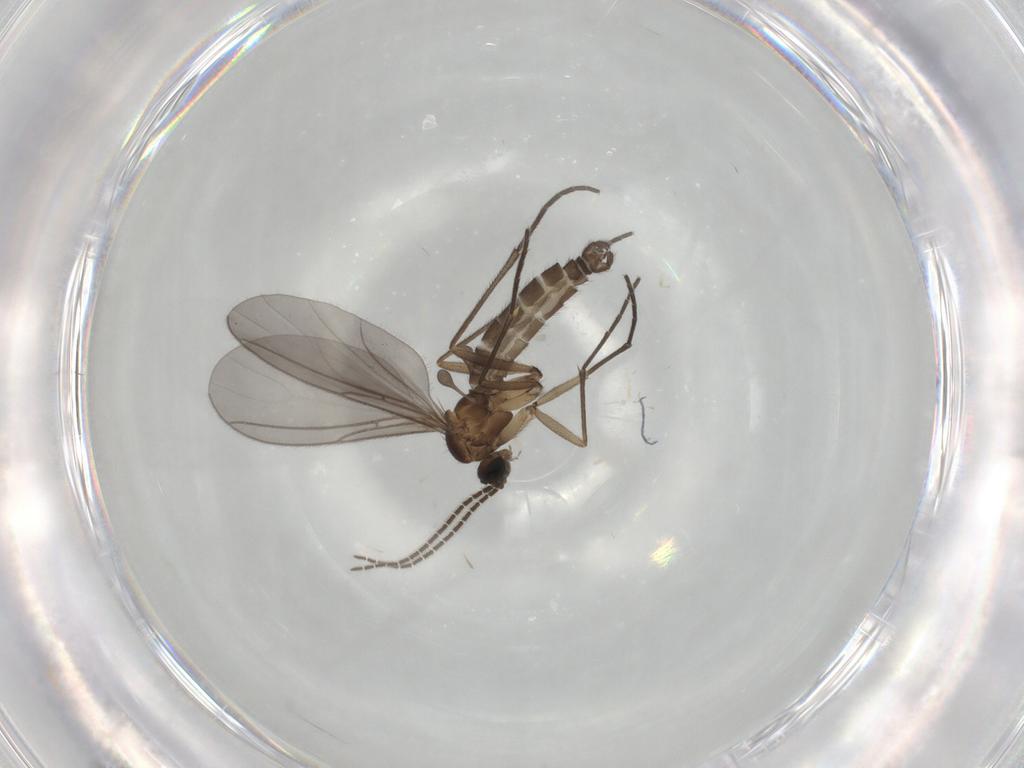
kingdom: Animalia
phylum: Arthropoda
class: Insecta
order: Diptera
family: Sciaridae
